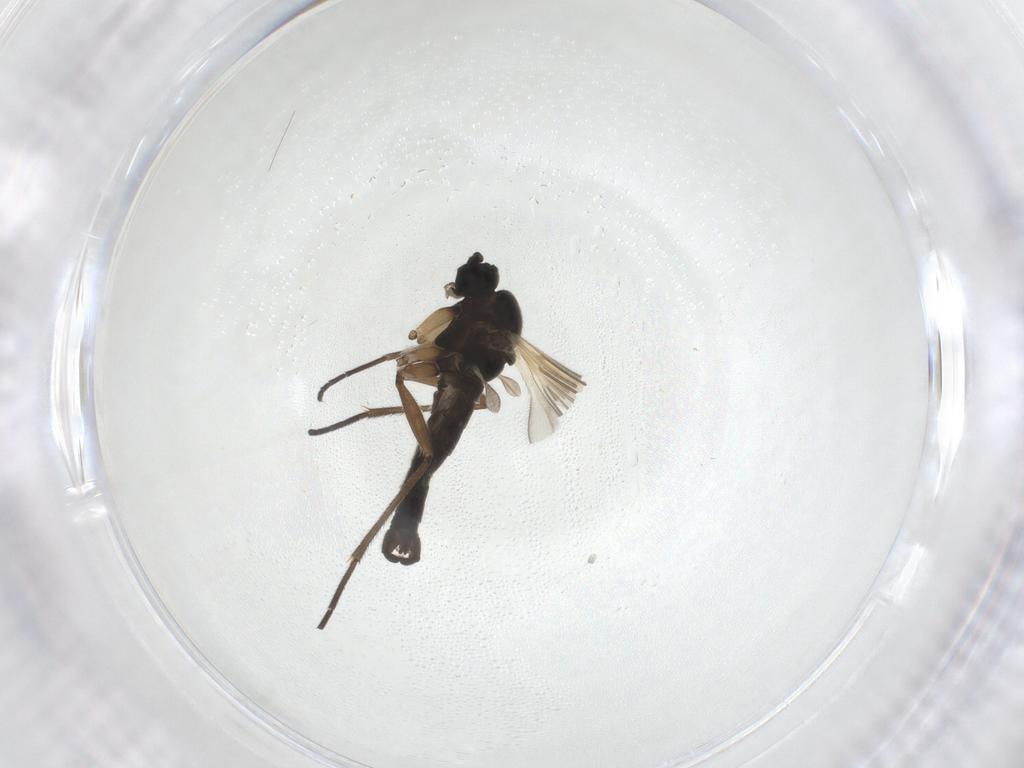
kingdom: Animalia
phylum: Arthropoda
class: Insecta
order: Diptera
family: Sciaridae
